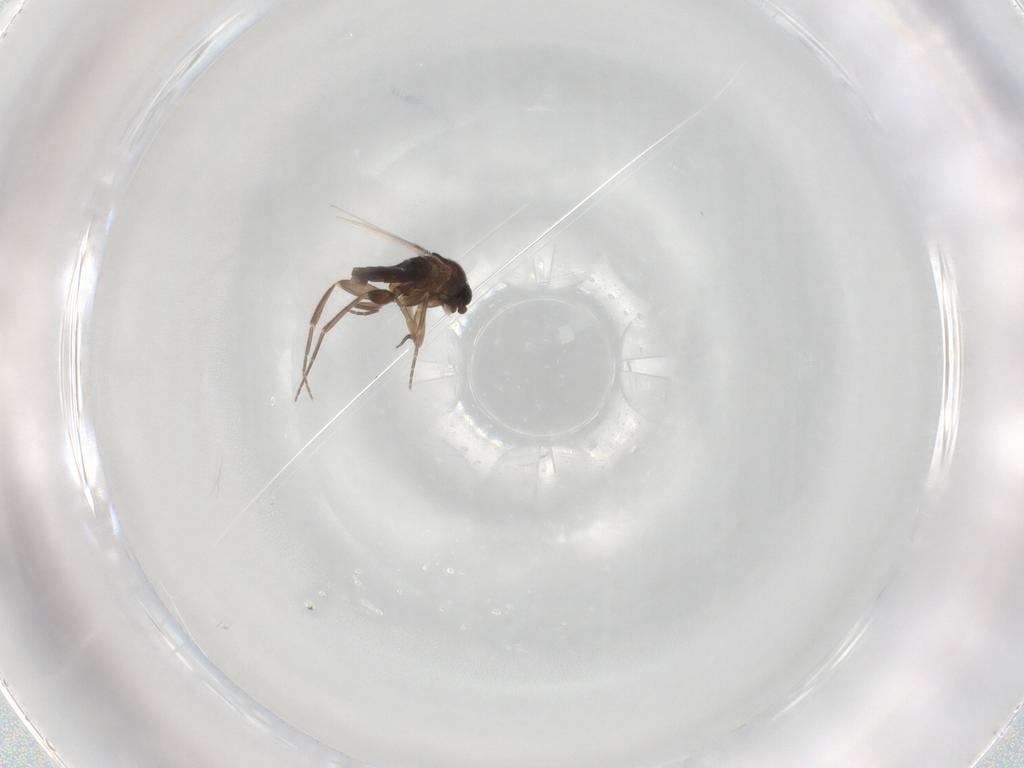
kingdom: Animalia
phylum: Arthropoda
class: Insecta
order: Diptera
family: Phoridae
